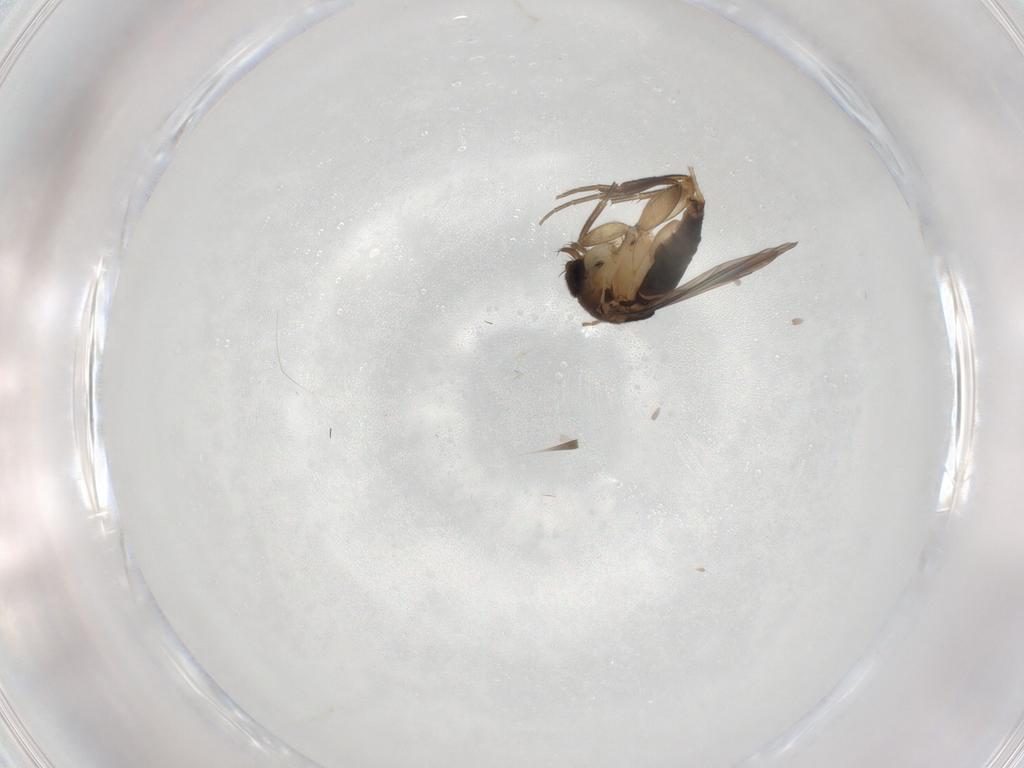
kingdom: Animalia
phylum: Arthropoda
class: Insecta
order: Diptera
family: Phoridae
